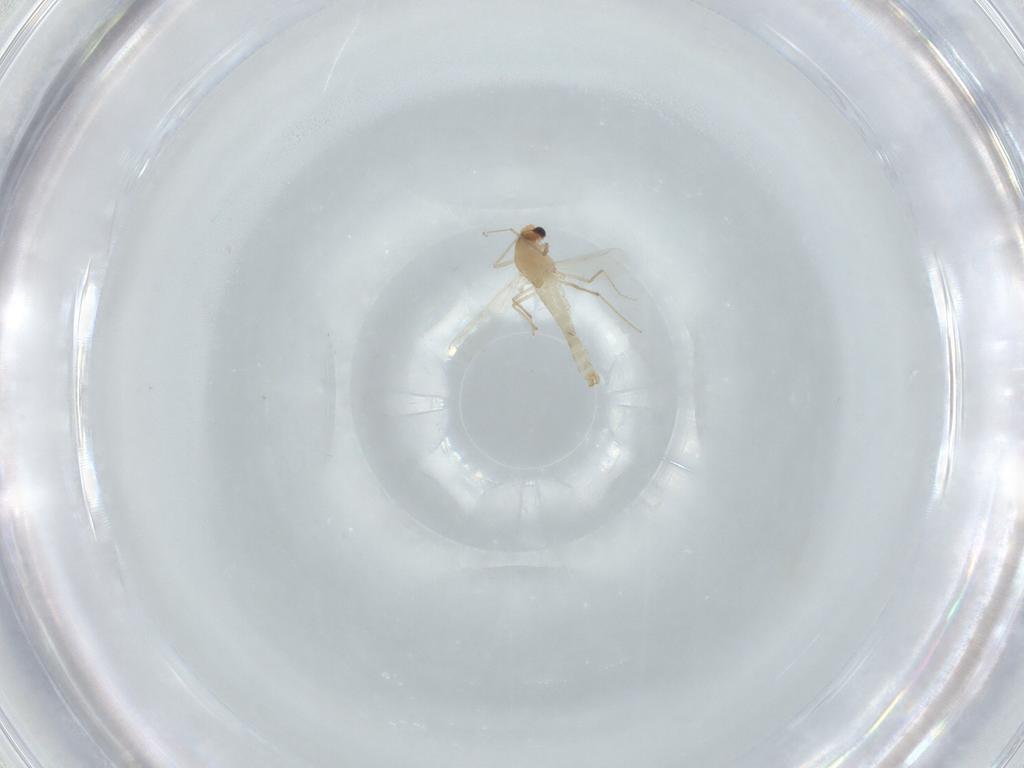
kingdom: Animalia
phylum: Arthropoda
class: Insecta
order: Diptera
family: Chironomidae
